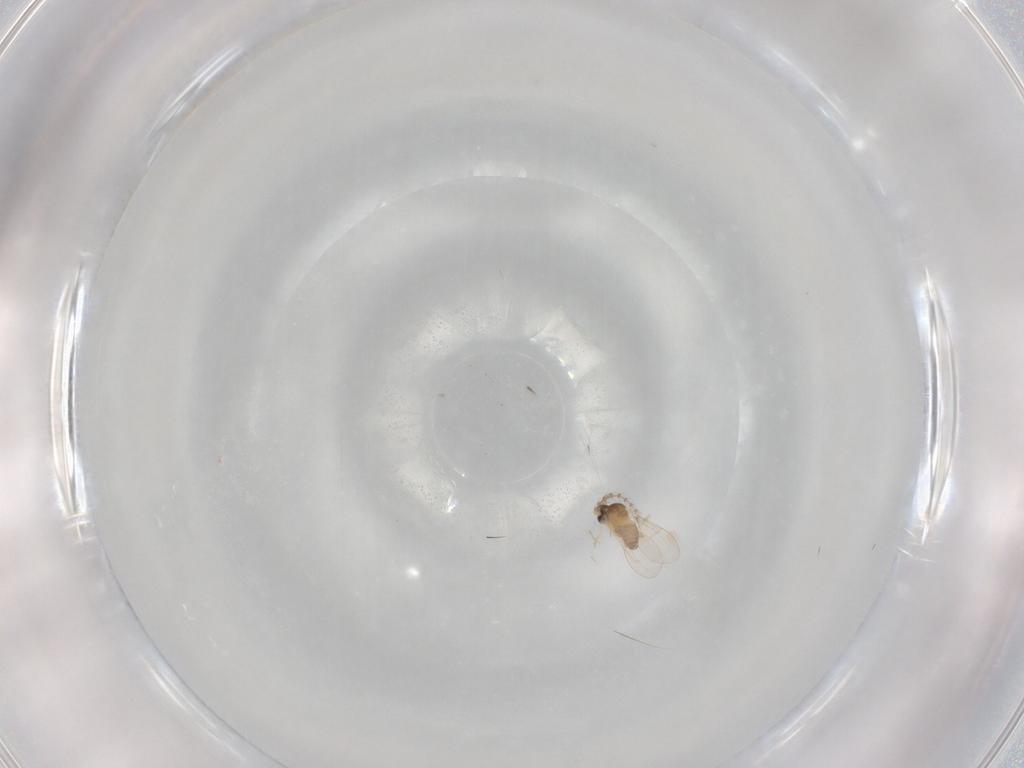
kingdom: Animalia
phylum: Arthropoda
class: Insecta
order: Diptera
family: Cecidomyiidae
